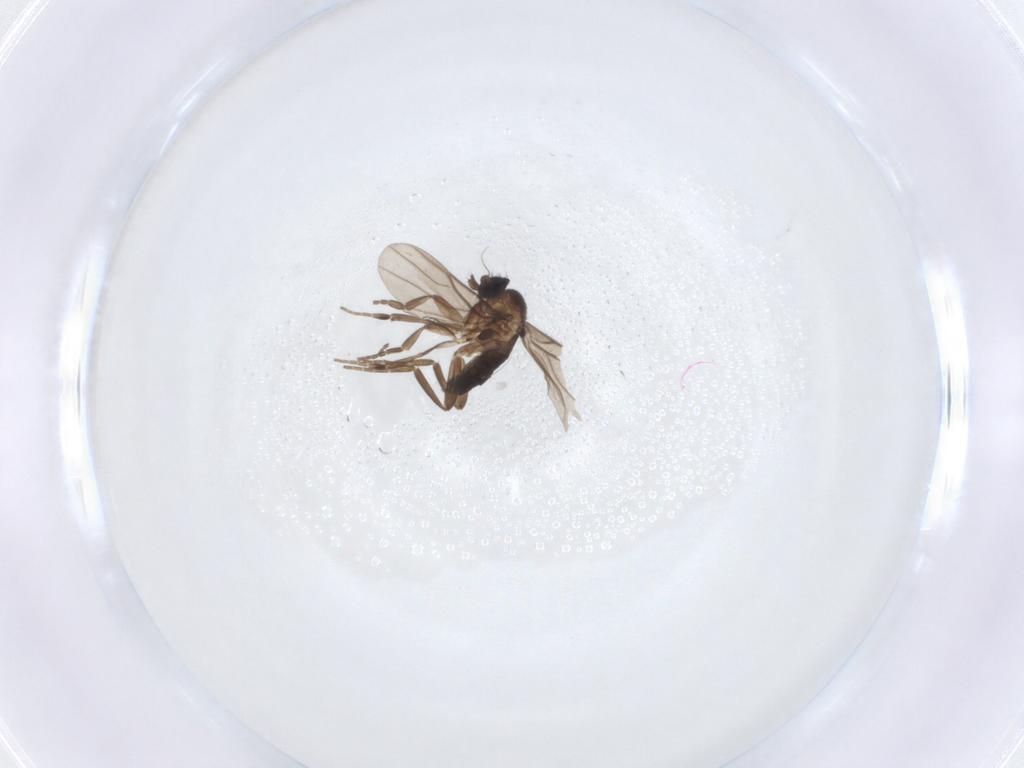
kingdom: Animalia
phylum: Arthropoda
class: Insecta
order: Diptera
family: Phoridae
